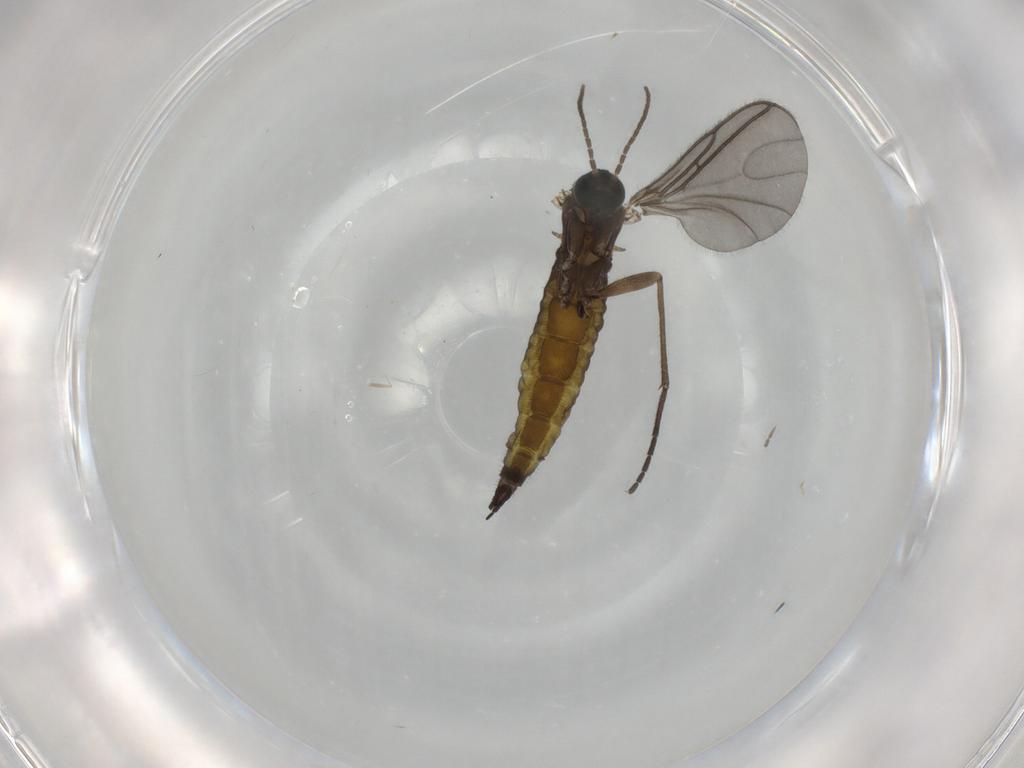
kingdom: Animalia
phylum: Arthropoda
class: Insecta
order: Diptera
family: Sciaridae
